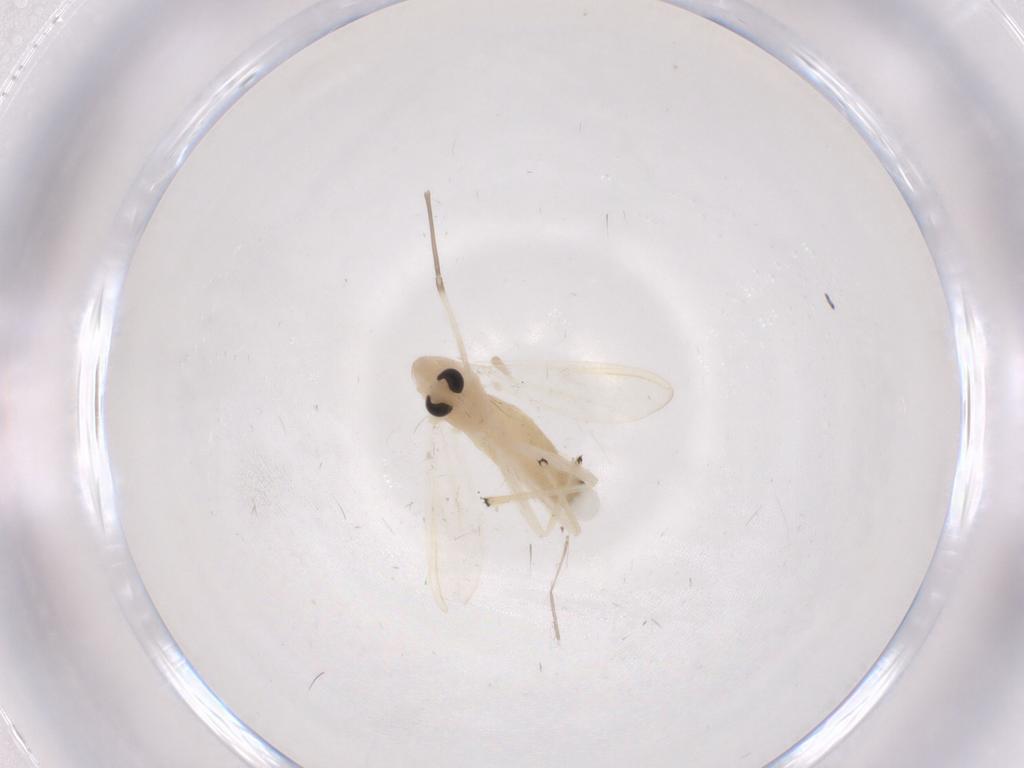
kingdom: Animalia
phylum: Arthropoda
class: Insecta
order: Diptera
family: Chironomidae
